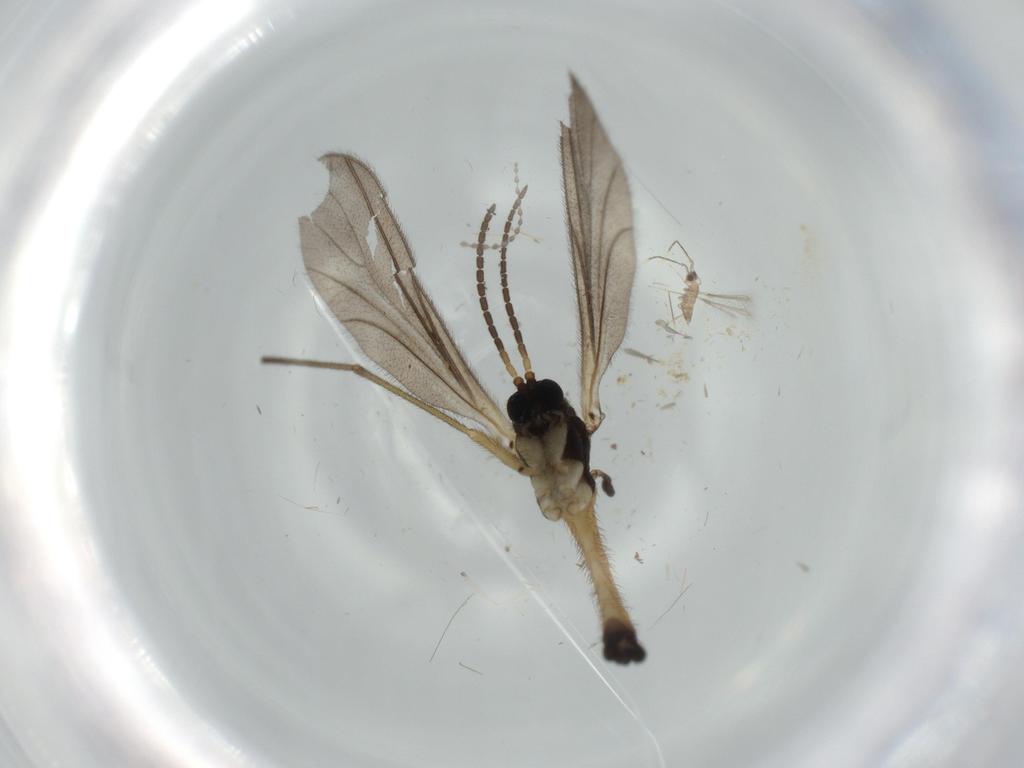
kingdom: Animalia
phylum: Arthropoda
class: Insecta
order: Diptera
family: Sciaridae
